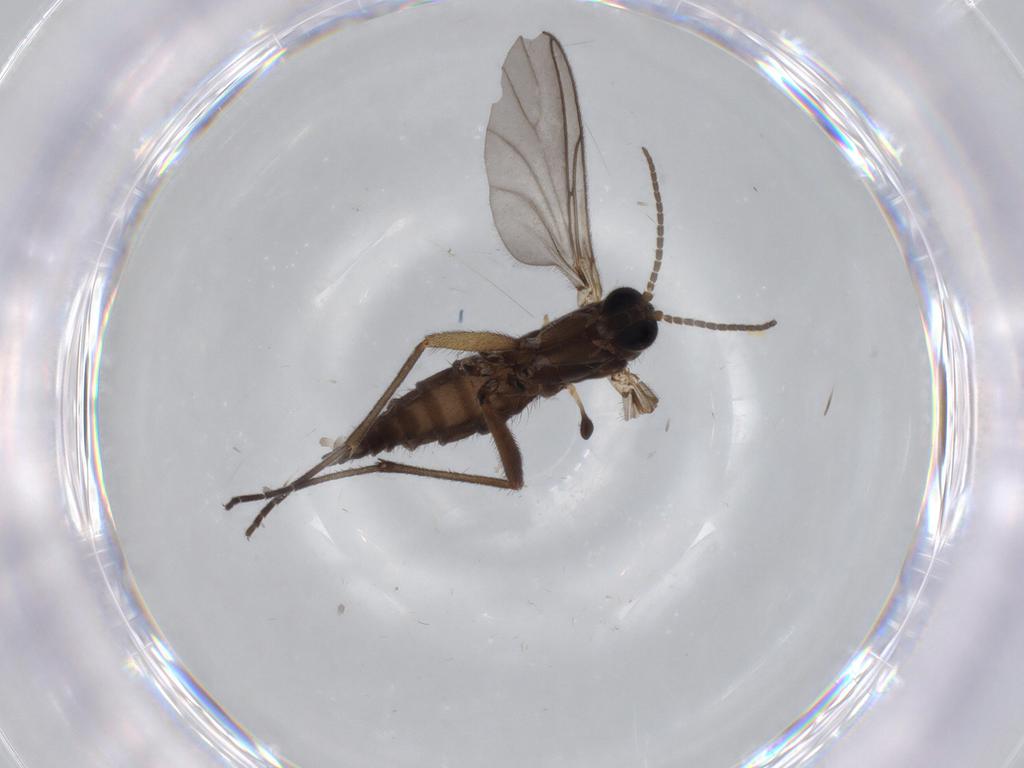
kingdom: Animalia
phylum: Arthropoda
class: Insecta
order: Diptera
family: Sciaridae
